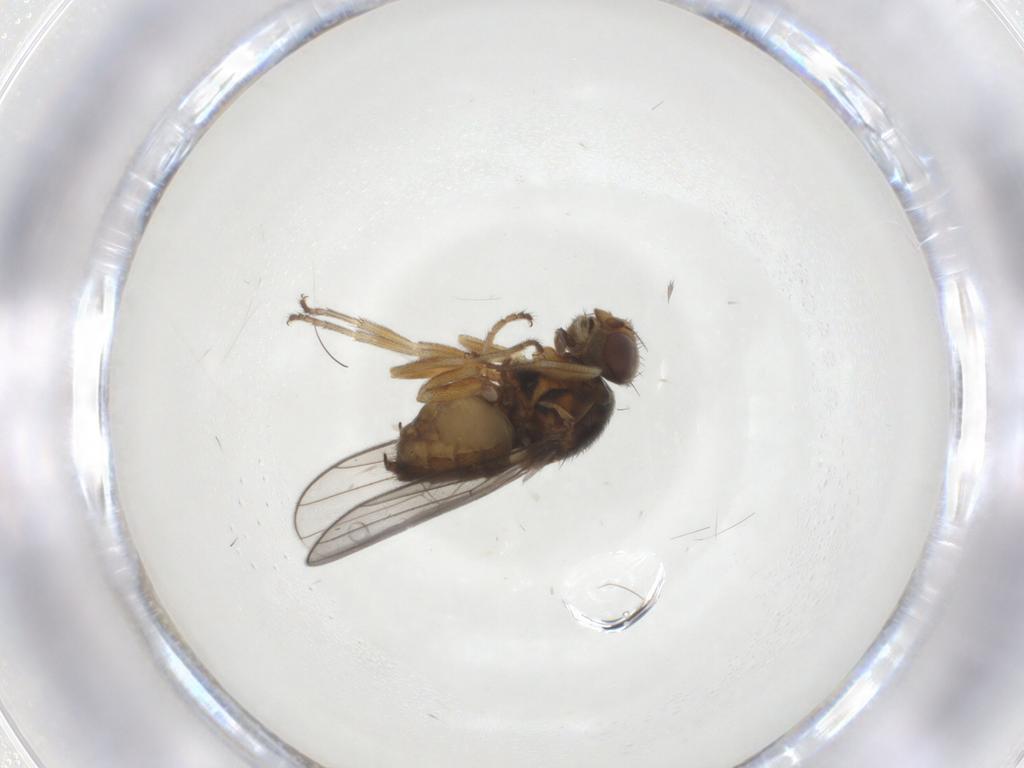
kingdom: Animalia
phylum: Arthropoda
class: Insecta
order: Diptera
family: Chloropidae
